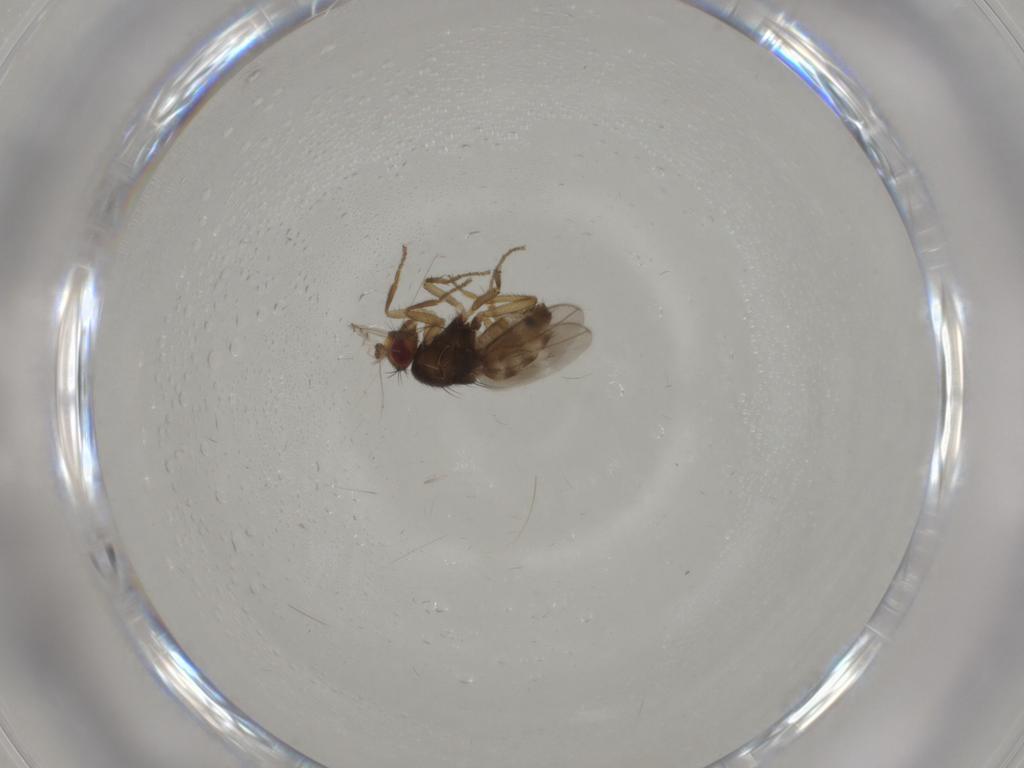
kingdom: Animalia
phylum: Arthropoda
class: Insecta
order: Diptera
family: Sphaeroceridae
